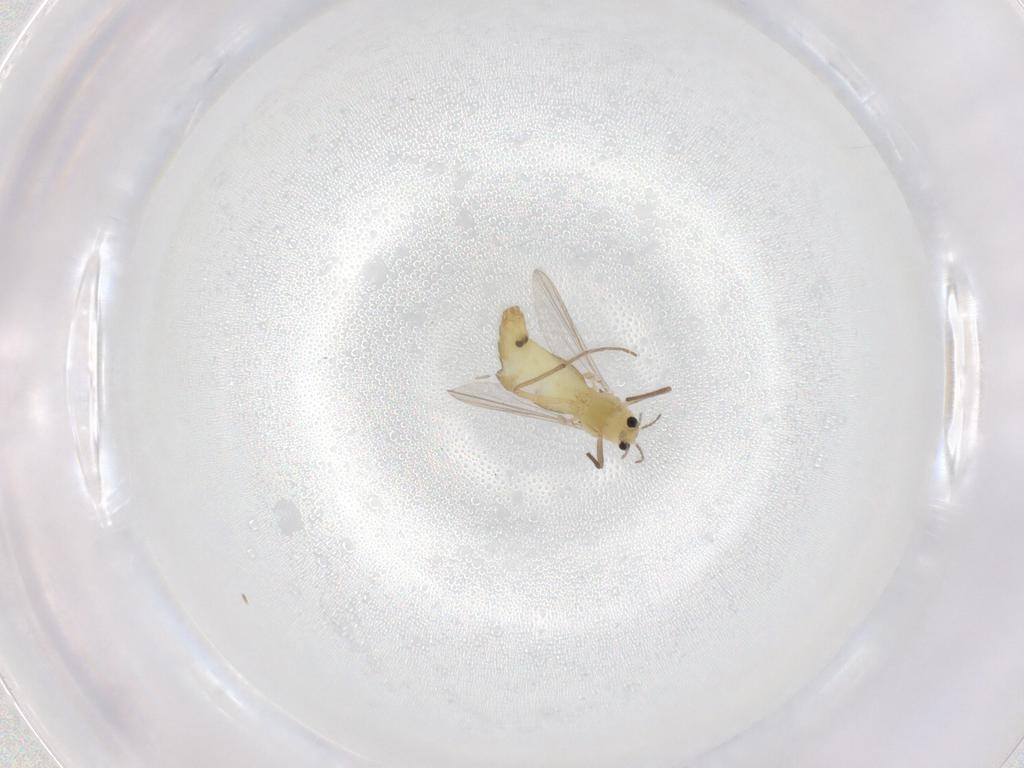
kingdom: Animalia
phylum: Arthropoda
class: Insecta
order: Diptera
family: Chironomidae
